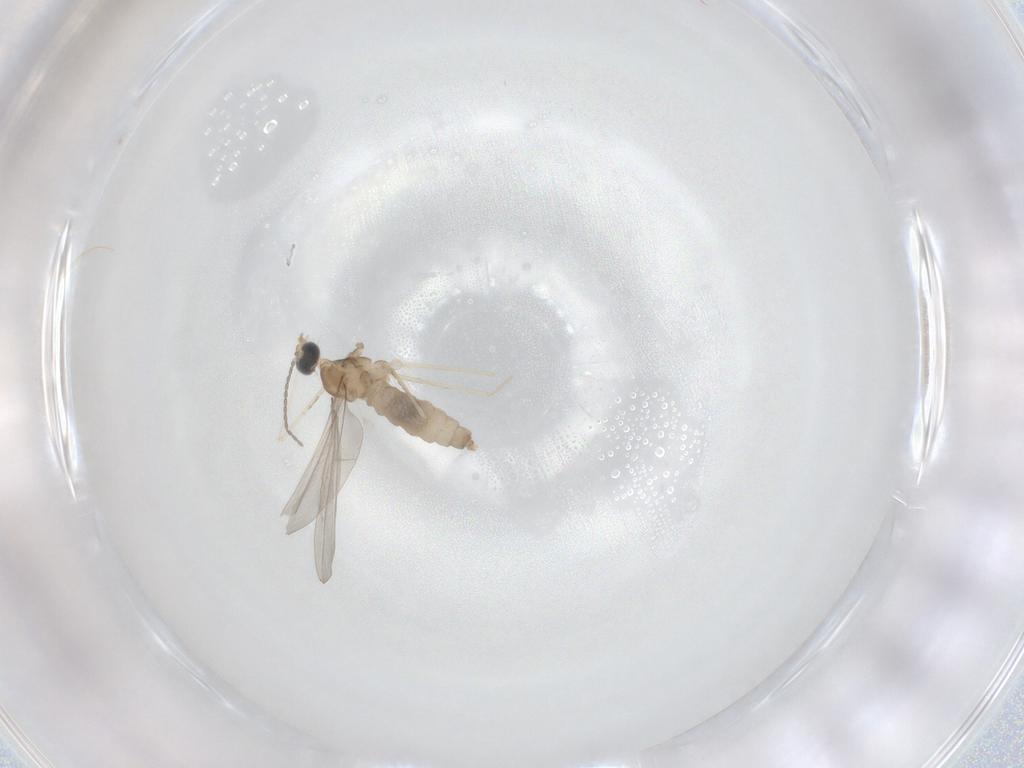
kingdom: Animalia
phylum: Arthropoda
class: Insecta
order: Diptera
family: Cecidomyiidae
